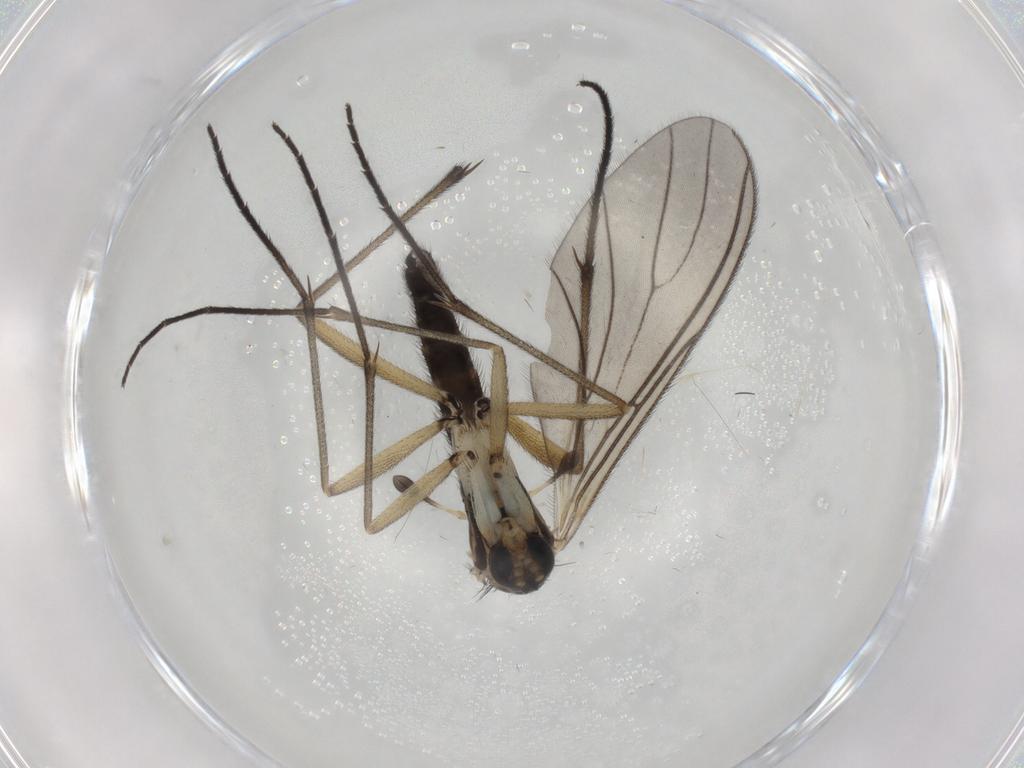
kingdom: Animalia
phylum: Arthropoda
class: Insecta
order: Diptera
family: Sciaridae
